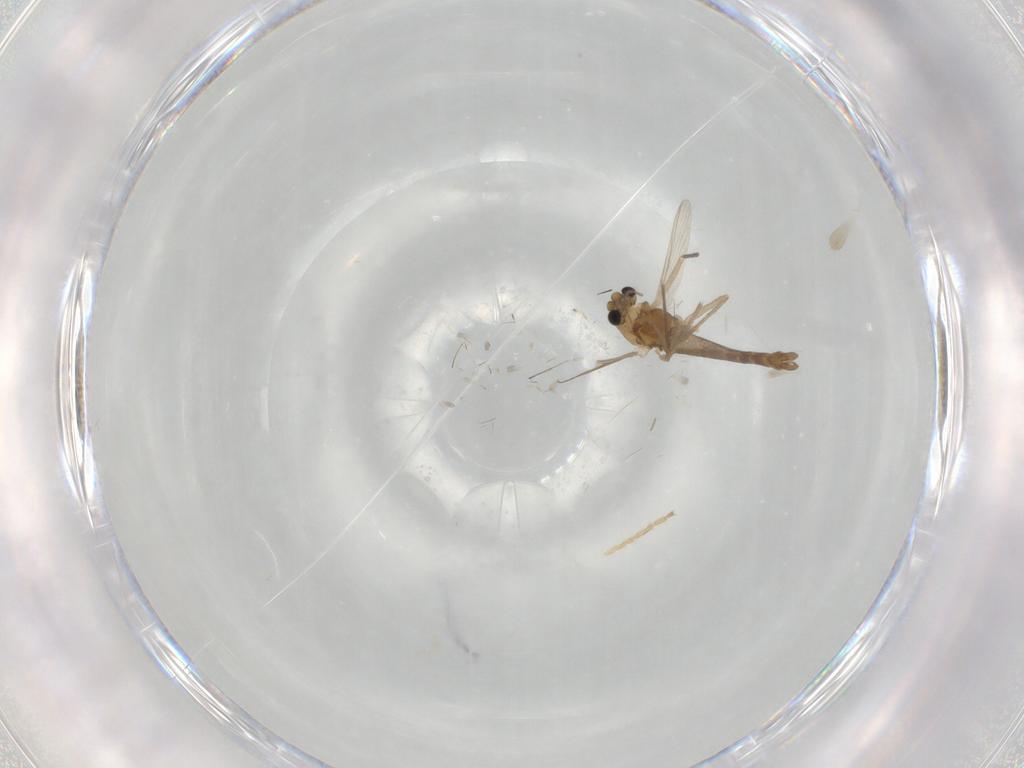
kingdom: Animalia
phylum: Arthropoda
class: Insecta
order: Diptera
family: Chironomidae
